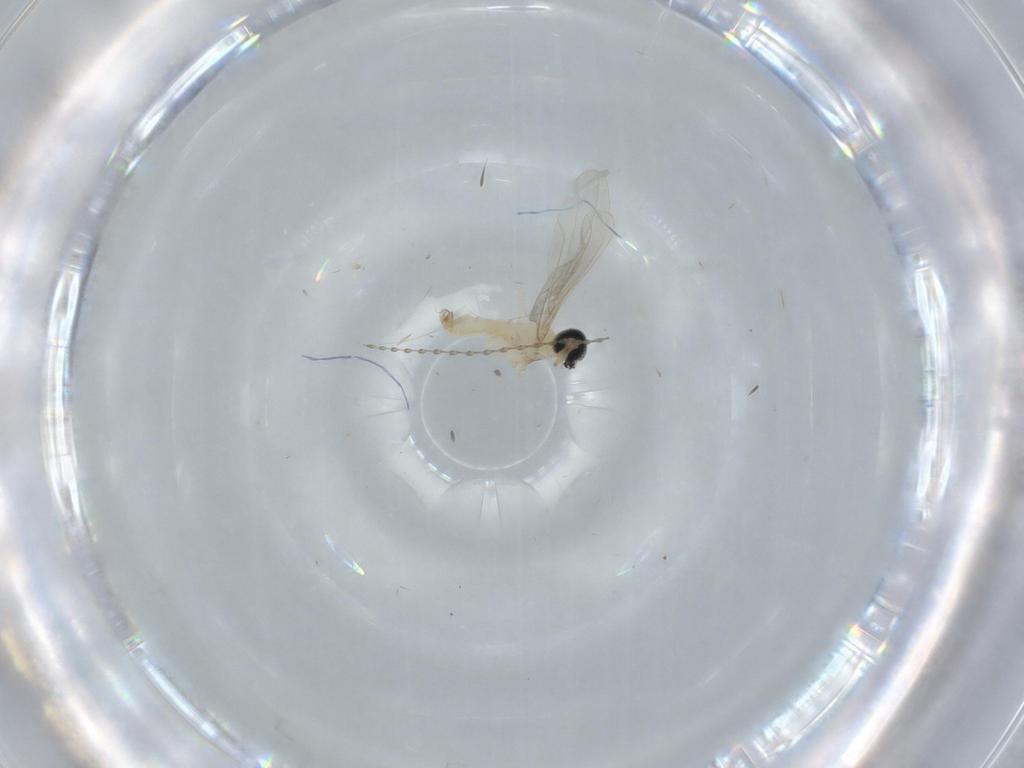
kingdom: Animalia
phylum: Arthropoda
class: Insecta
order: Diptera
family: Cecidomyiidae
